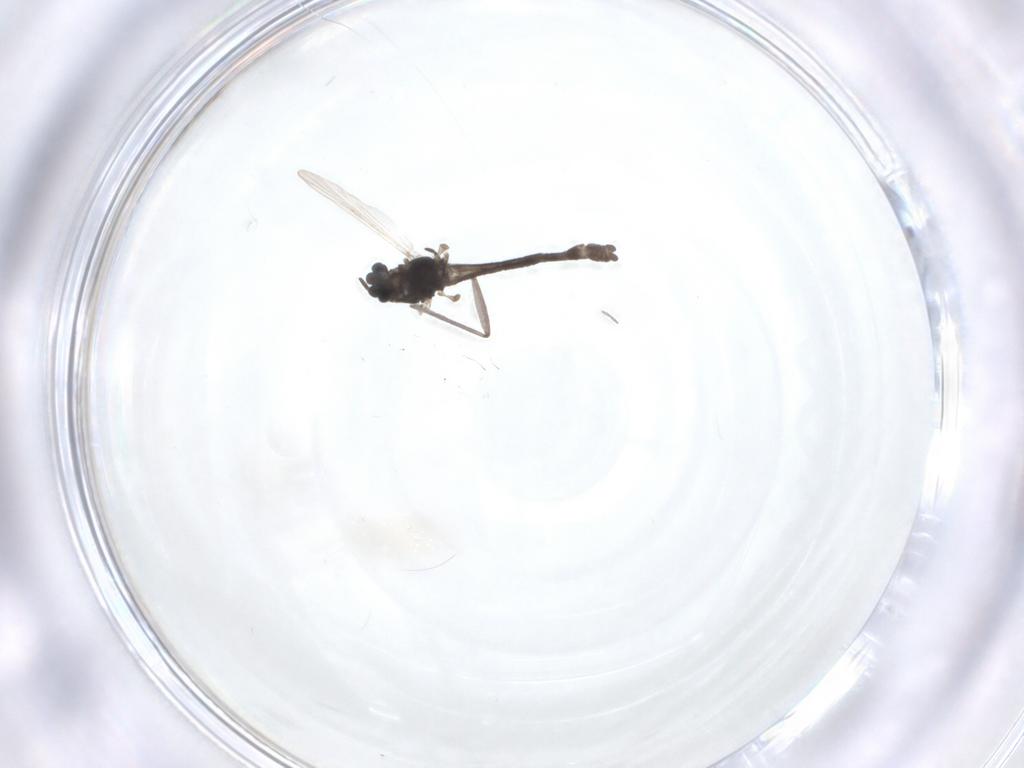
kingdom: Animalia
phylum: Arthropoda
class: Insecta
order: Diptera
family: Chironomidae
